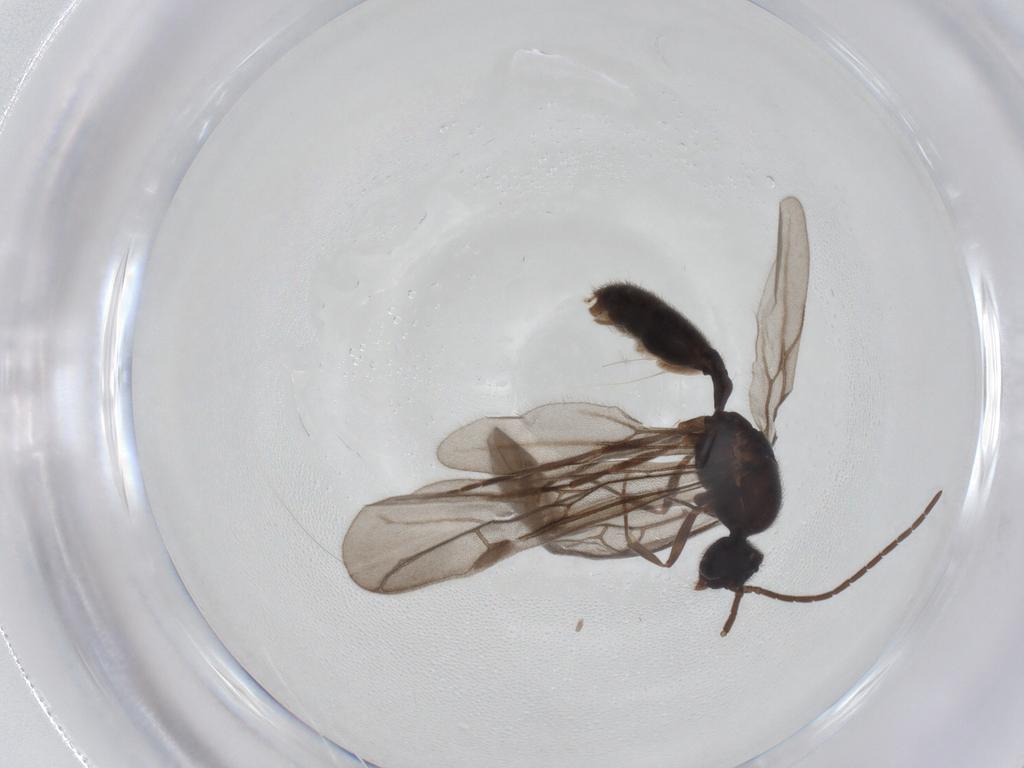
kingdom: Animalia
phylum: Arthropoda
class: Insecta
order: Hymenoptera
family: Formicidae
